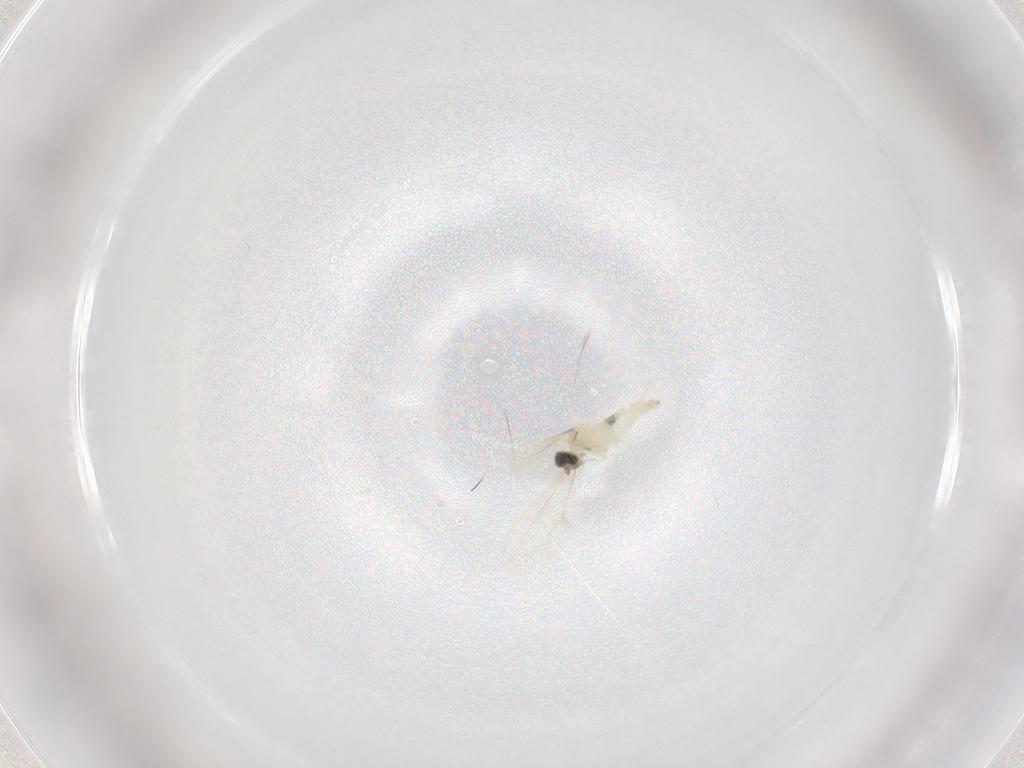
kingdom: Animalia
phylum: Arthropoda
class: Insecta
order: Diptera
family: Cecidomyiidae
